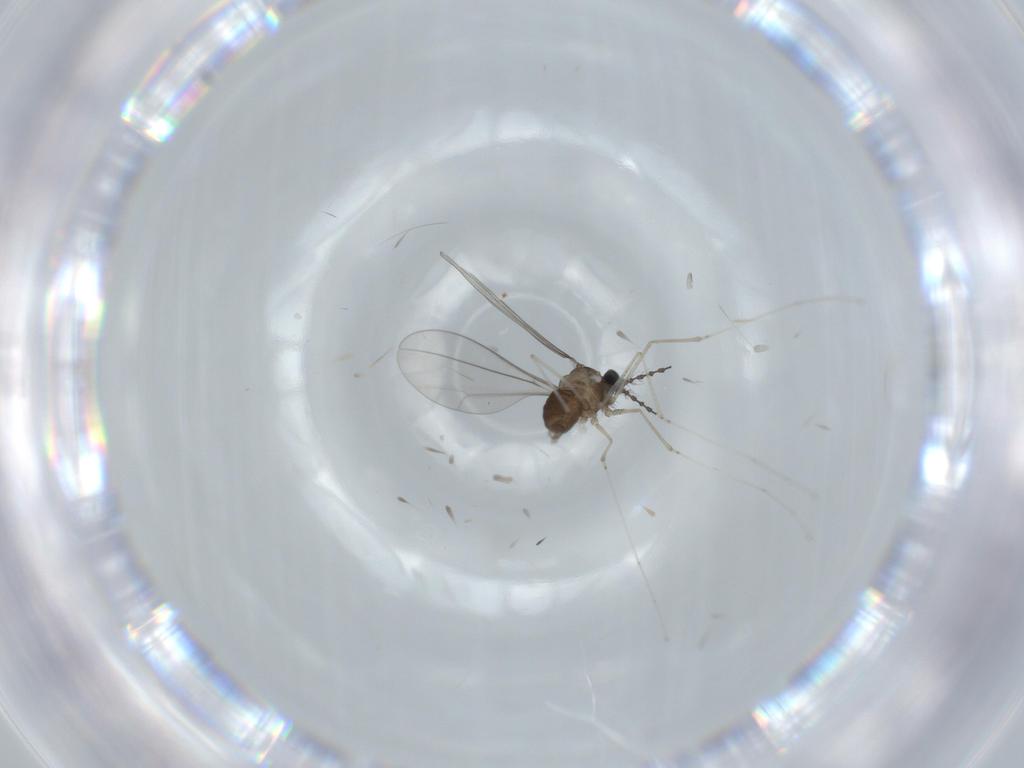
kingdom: Animalia
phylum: Arthropoda
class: Insecta
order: Diptera
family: Cecidomyiidae
